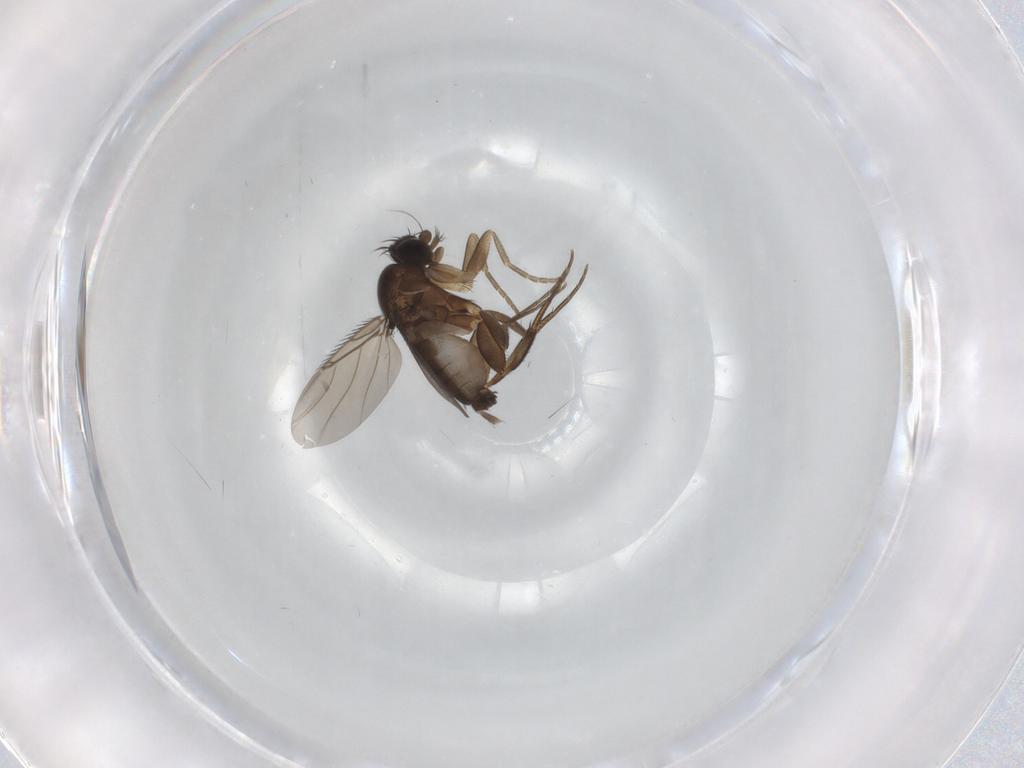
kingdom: Animalia
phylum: Arthropoda
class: Insecta
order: Diptera
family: Phoridae
